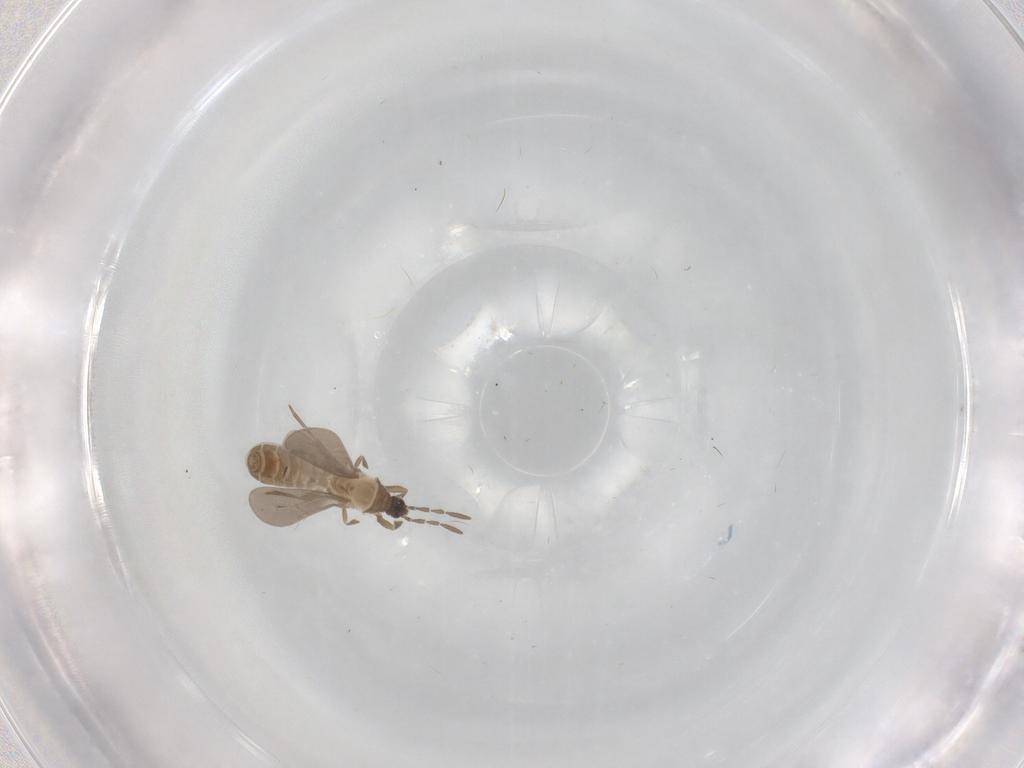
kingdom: Animalia
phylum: Arthropoda
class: Insecta
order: Hemiptera
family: Enicocephalidae
